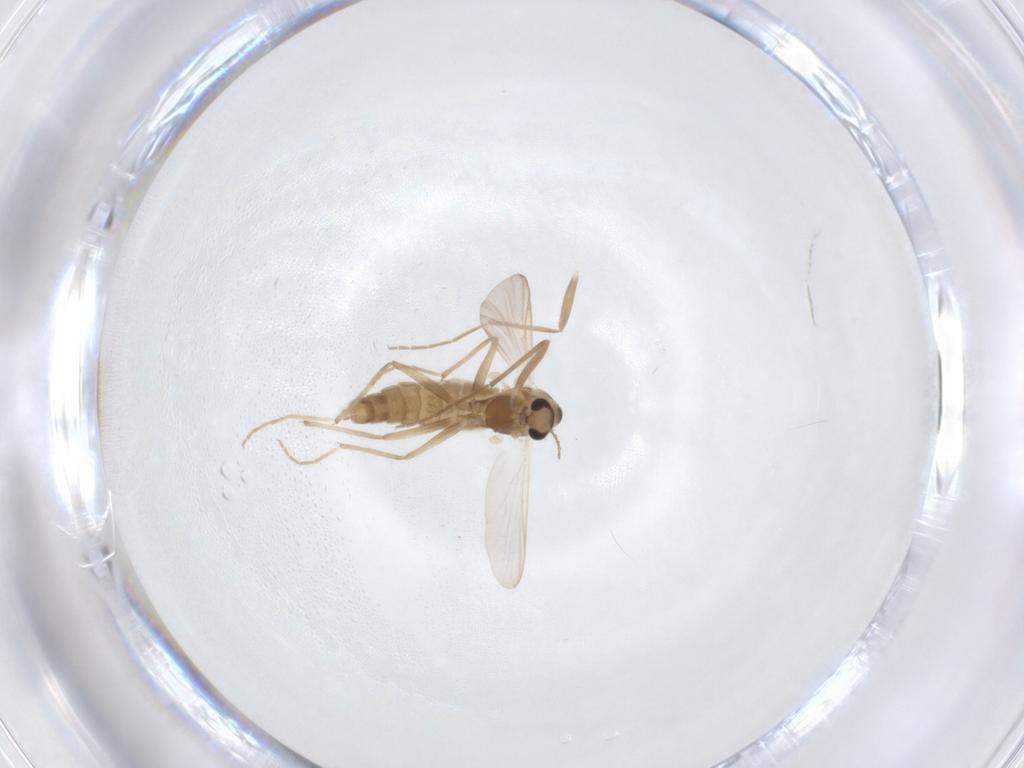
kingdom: Animalia
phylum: Arthropoda
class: Insecta
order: Diptera
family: Chironomidae
